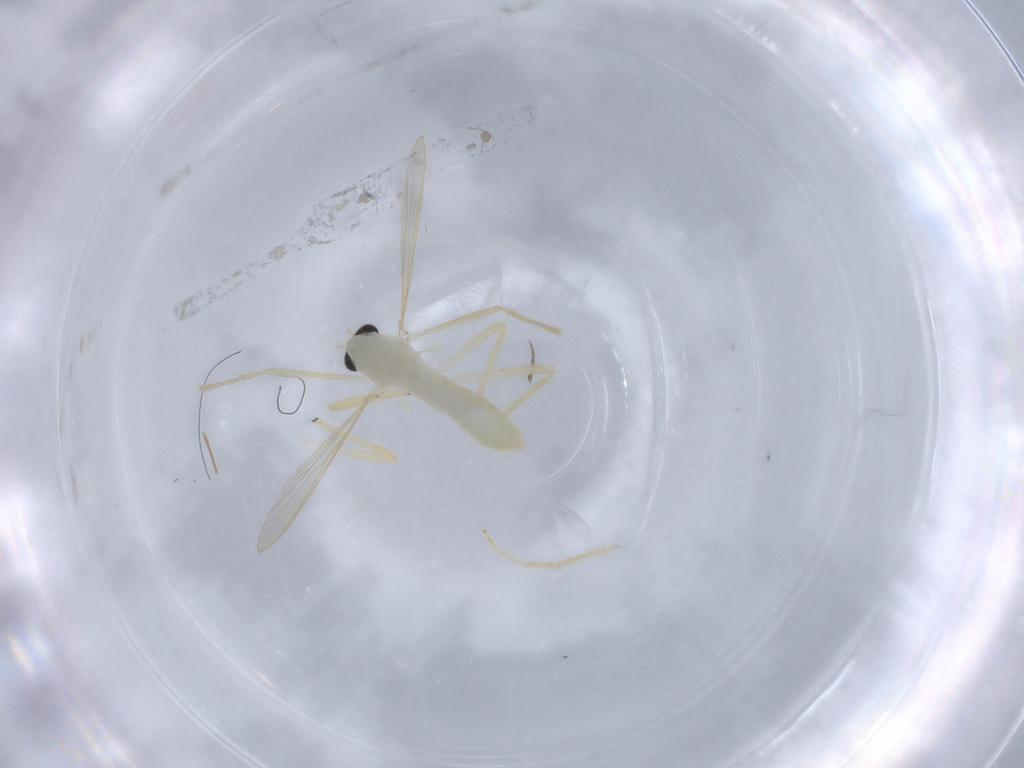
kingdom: Animalia
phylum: Arthropoda
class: Insecta
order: Diptera
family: Chironomidae
